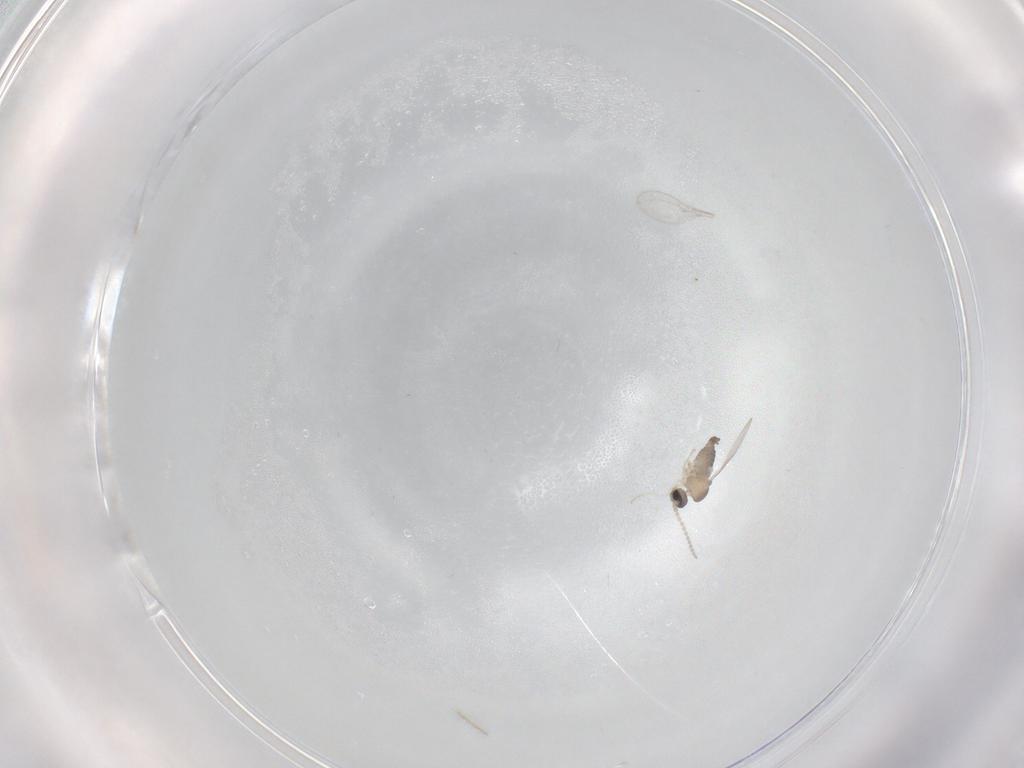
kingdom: Animalia
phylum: Arthropoda
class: Insecta
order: Diptera
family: Cecidomyiidae
